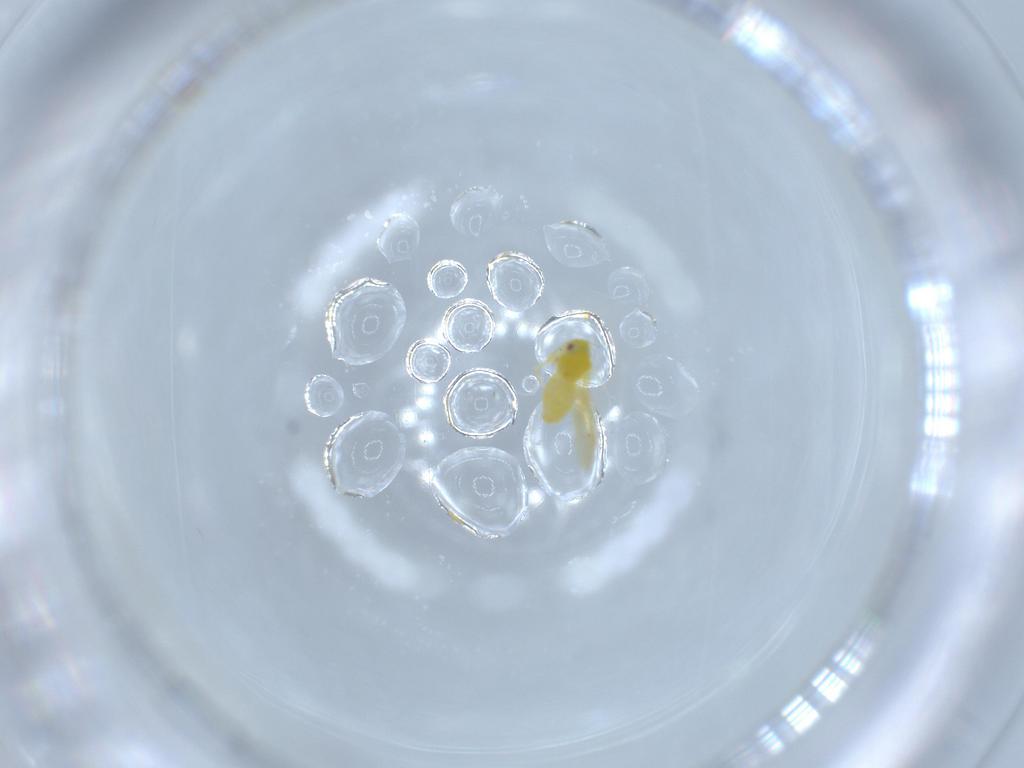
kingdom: Animalia
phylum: Arthropoda
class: Insecta
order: Hemiptera
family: Aleyrodidae
